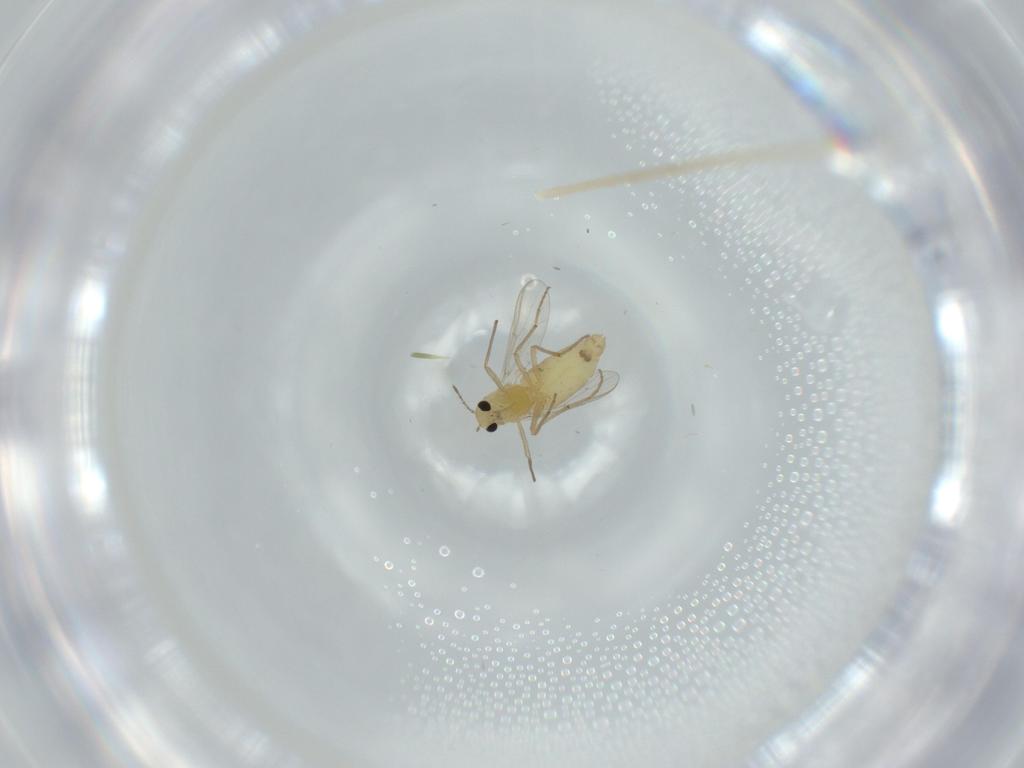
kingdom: Animalia
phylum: Arthropoda
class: Insecta
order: Diptera
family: Chironomidae
